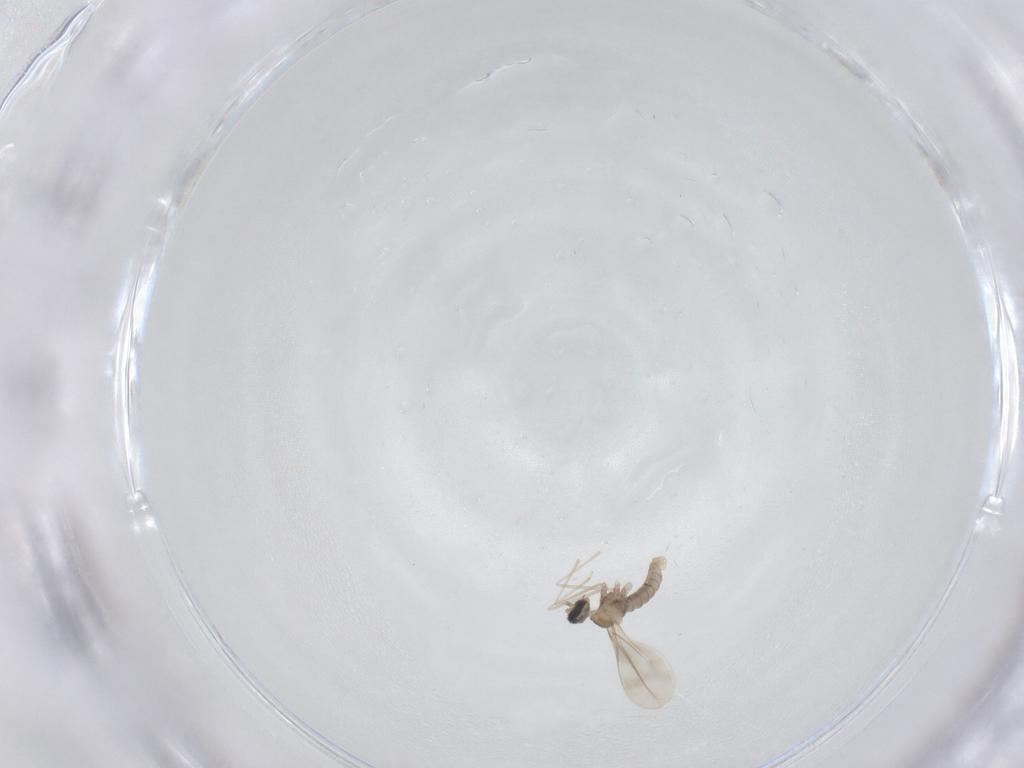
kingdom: Animalia
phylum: Arthropoda
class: Insecta
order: Diptera
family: Cecidomyiidae
